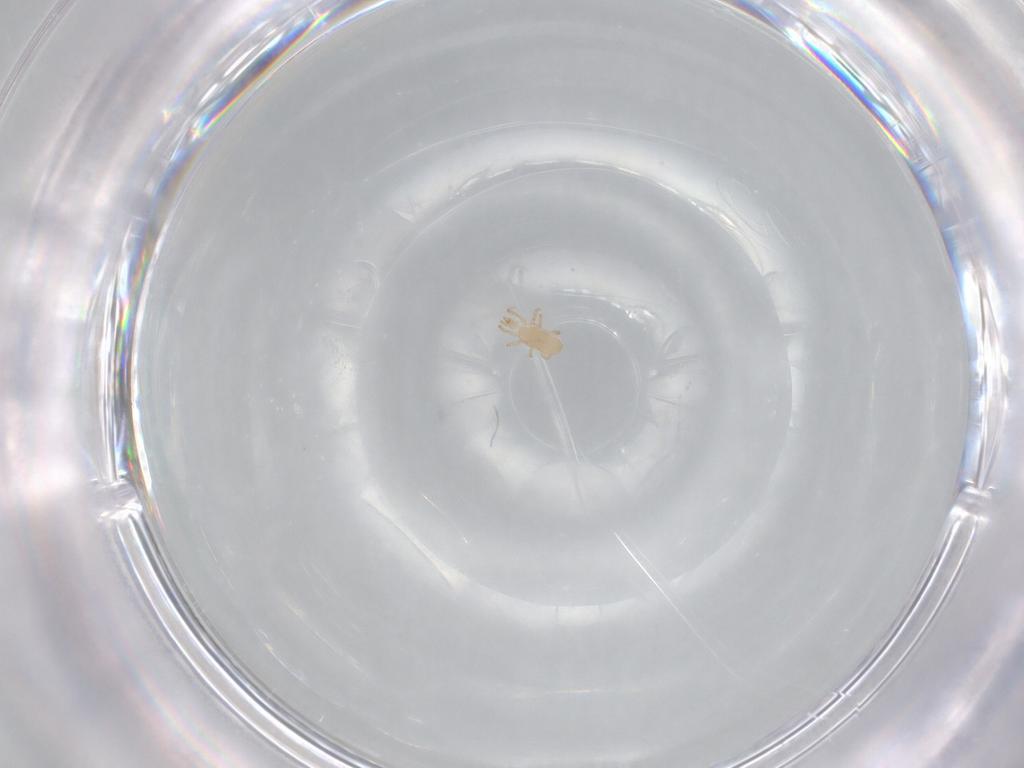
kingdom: Animalia
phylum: Arthropoda
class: Arachnida
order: Mesostigmata
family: Ascidae
